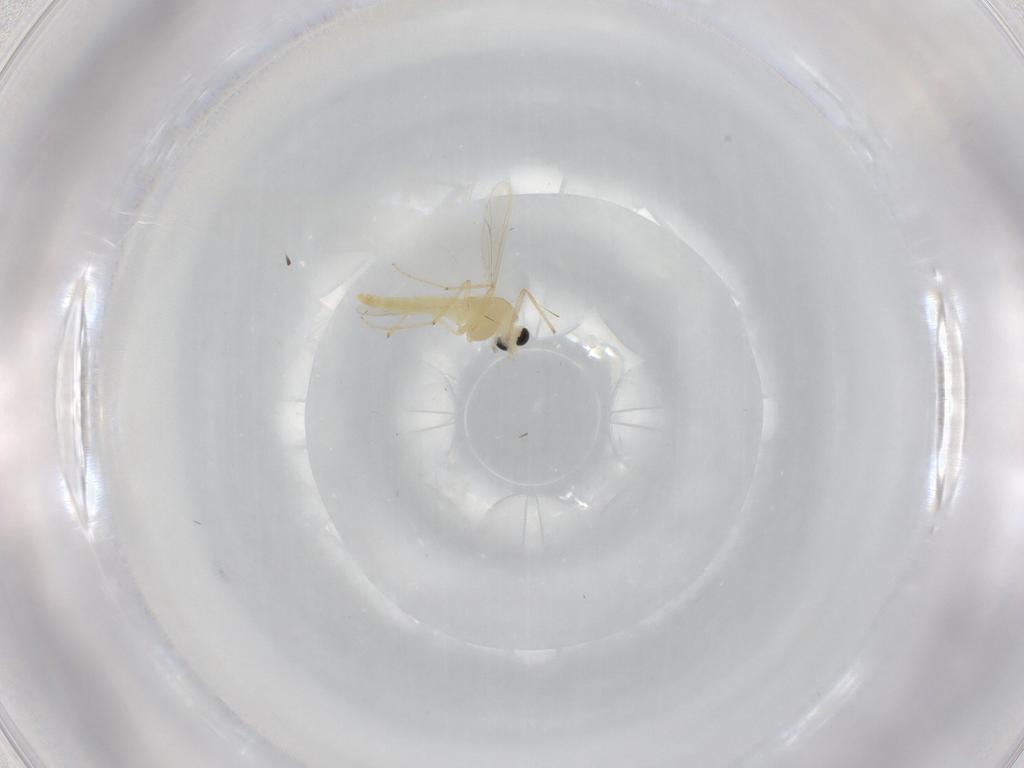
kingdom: Animalia
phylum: Arthropoda
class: Insecta
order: Diptera
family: Chironomidae
